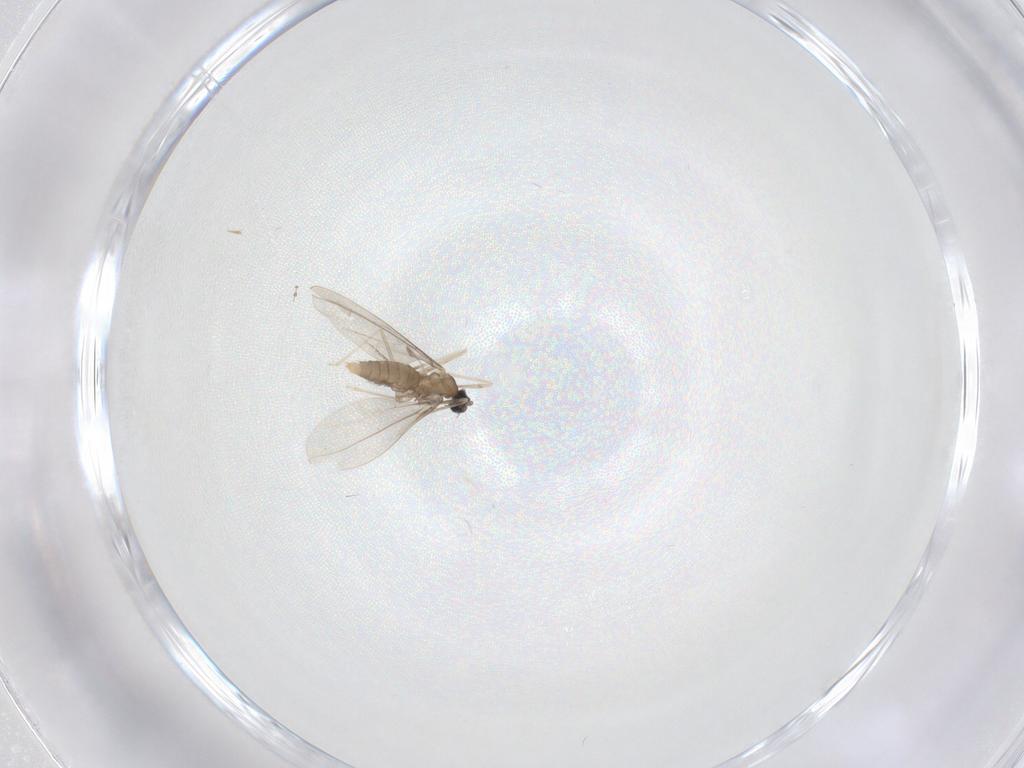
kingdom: Animalia
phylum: Arthropoda
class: Insecta
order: Diptera
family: Cecidomyiidae
